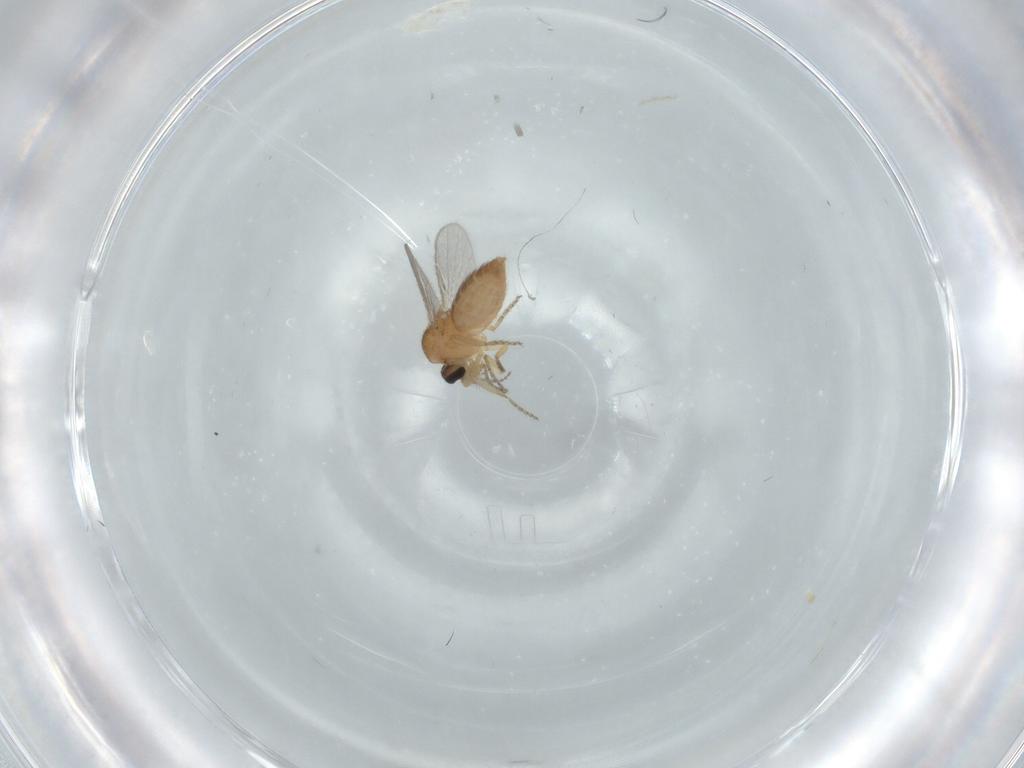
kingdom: Animalia
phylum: Arthropoda
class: Insecta
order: Diptera
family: Ceratopogonidae
